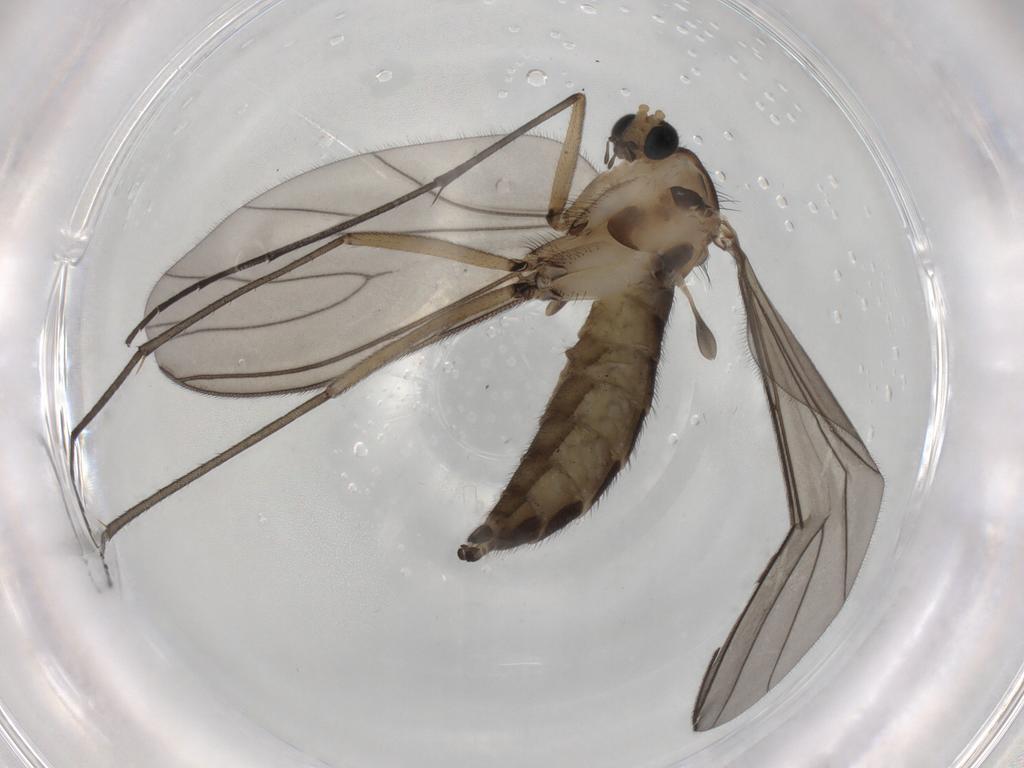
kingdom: Animalia
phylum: Arthropoda
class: Insecta
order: Diptera
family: Sciaridae
